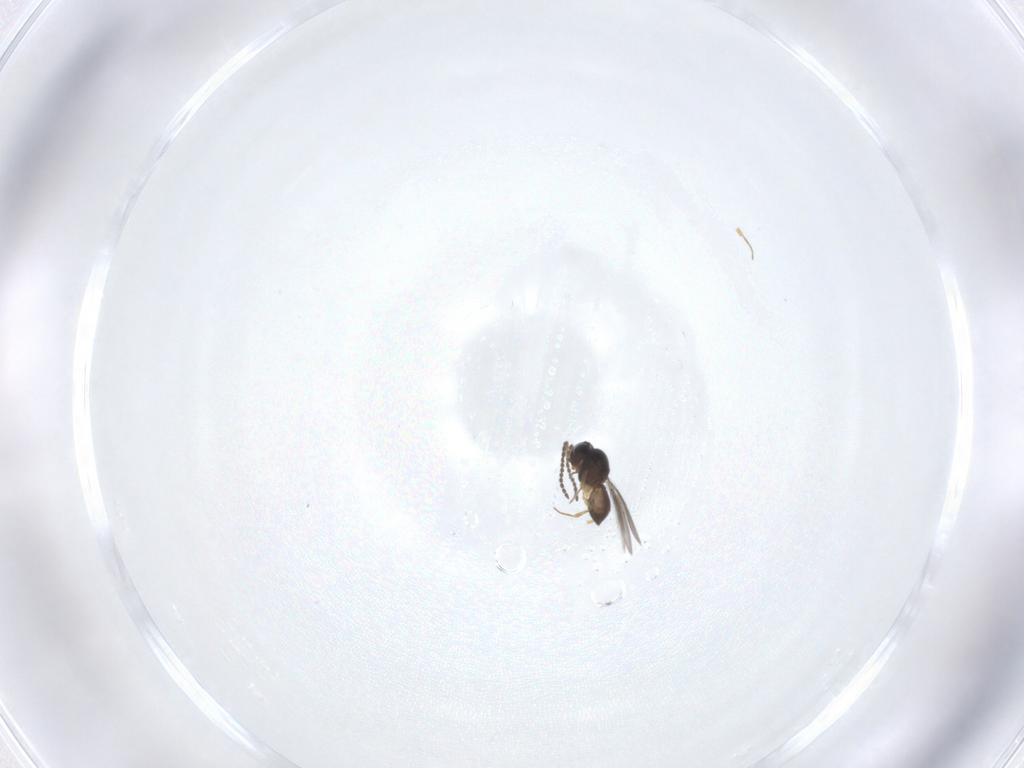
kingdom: Animalia
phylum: Arthropoda
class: Insecta
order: Hymenoptera
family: Scelionidae
